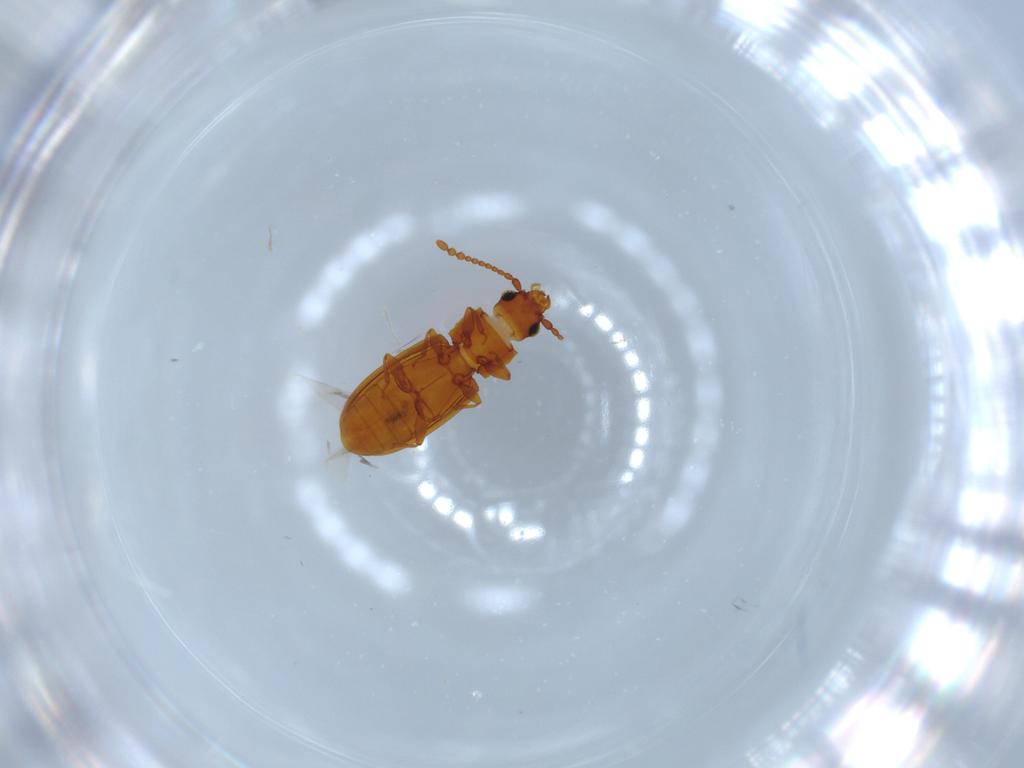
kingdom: Animalia
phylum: Arthropoda
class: Insecta
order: Coleoptera
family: Laemophloeidae
